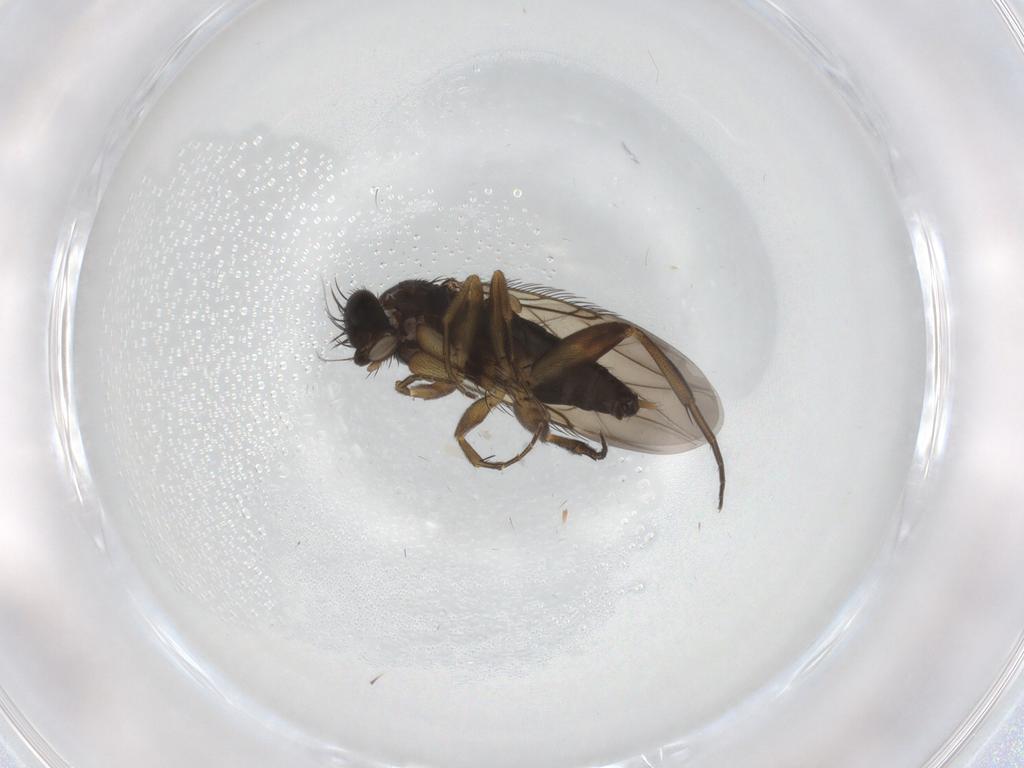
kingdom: Animalia
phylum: Arthropoda
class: Insecta
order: Diptera
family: Phoridae
